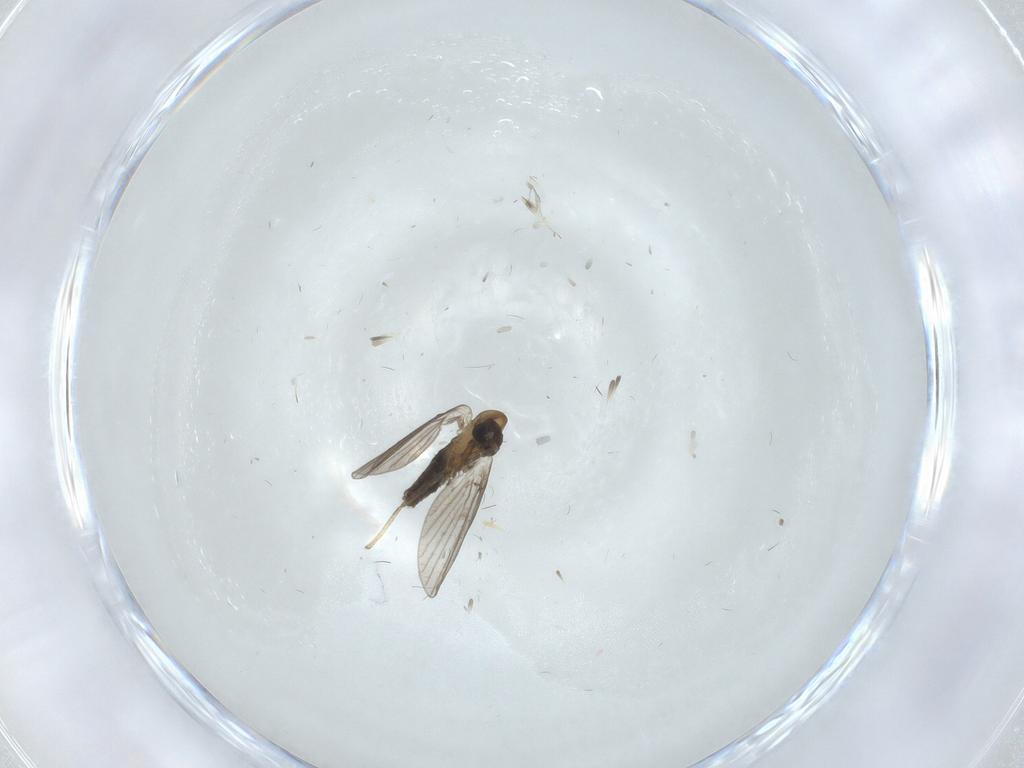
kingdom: Animalia
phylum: Arthropoda
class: Insecta
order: Diptera
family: Cecidomyiidae
